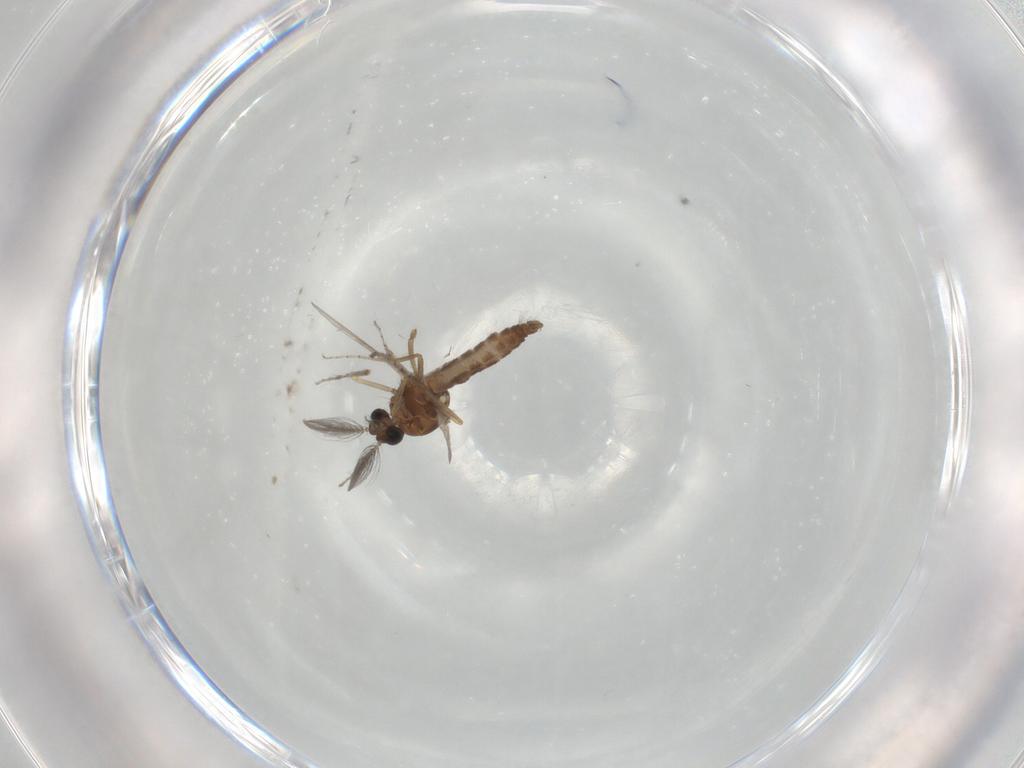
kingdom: Animalia
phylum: Arthropoda
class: Insecta
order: Diptera
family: Ceratopogonidae
